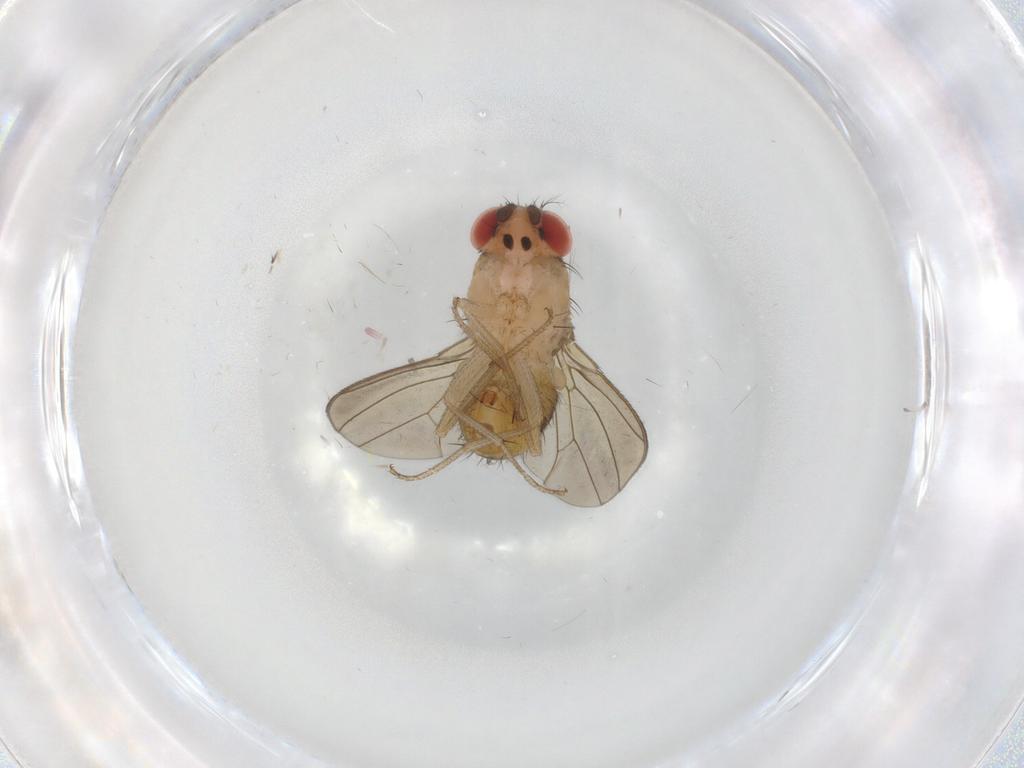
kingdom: Animalia
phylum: Arthropoda
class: Insecta
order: Diptera
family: Drosophilidae
